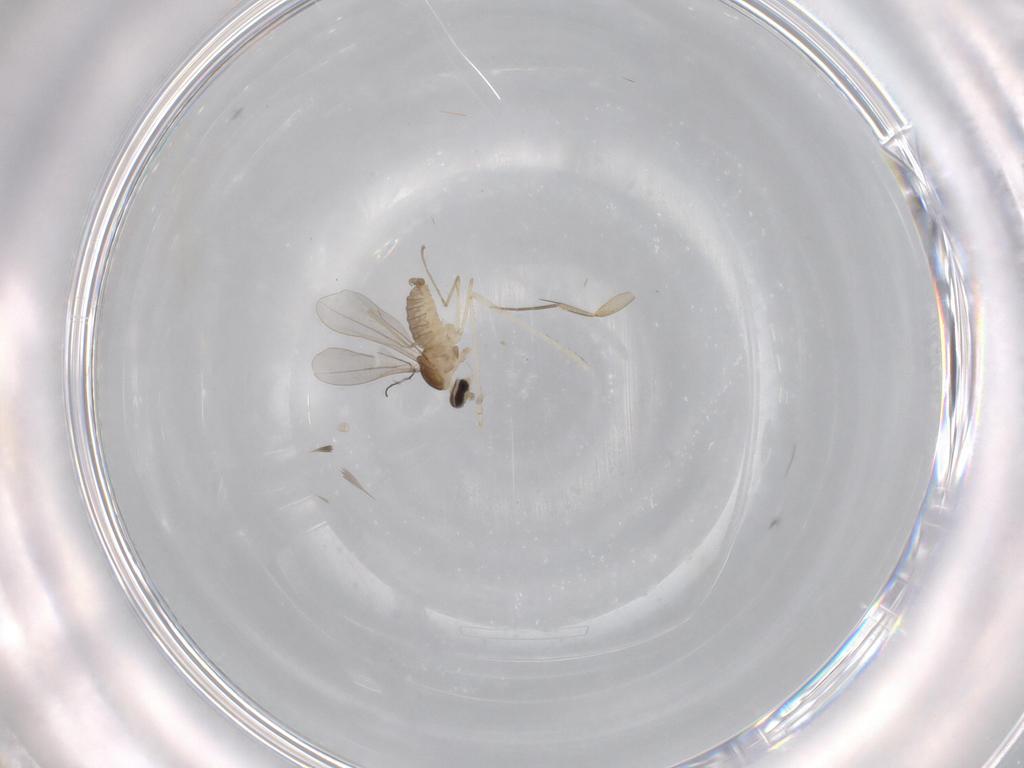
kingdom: Animalia
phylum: Arthropoda
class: Insecta
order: Diptera
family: Cecidomyiidae
